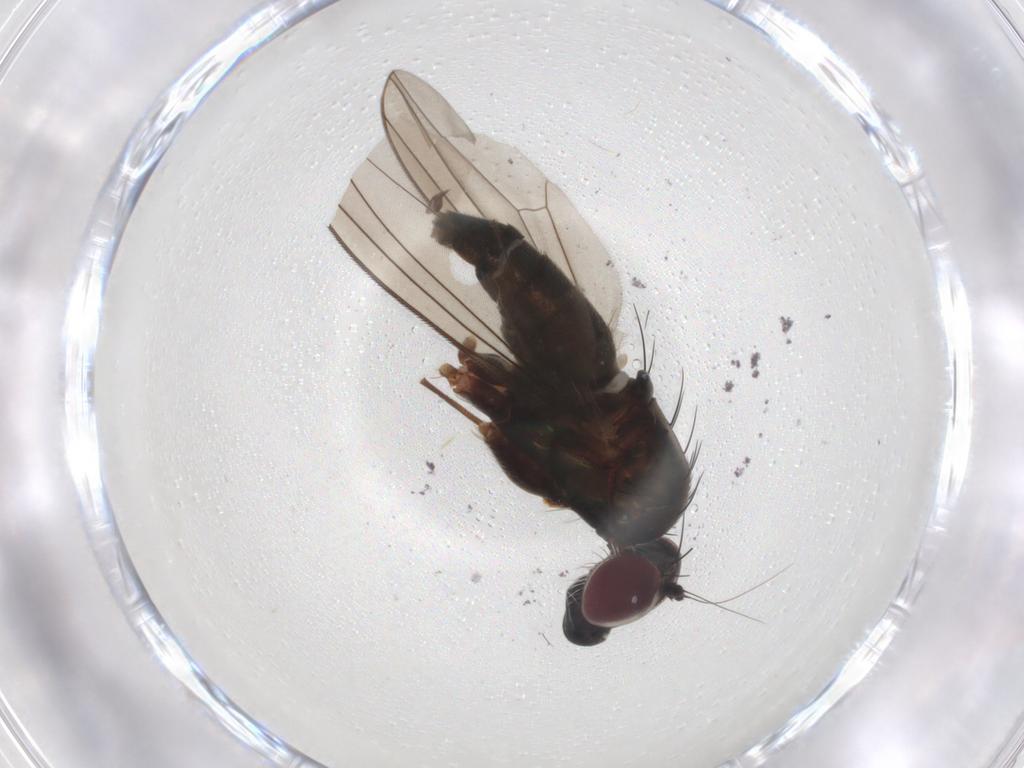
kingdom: Animalia
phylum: Arthropoda
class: Insecta
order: Diptera
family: Dolichopodidae
